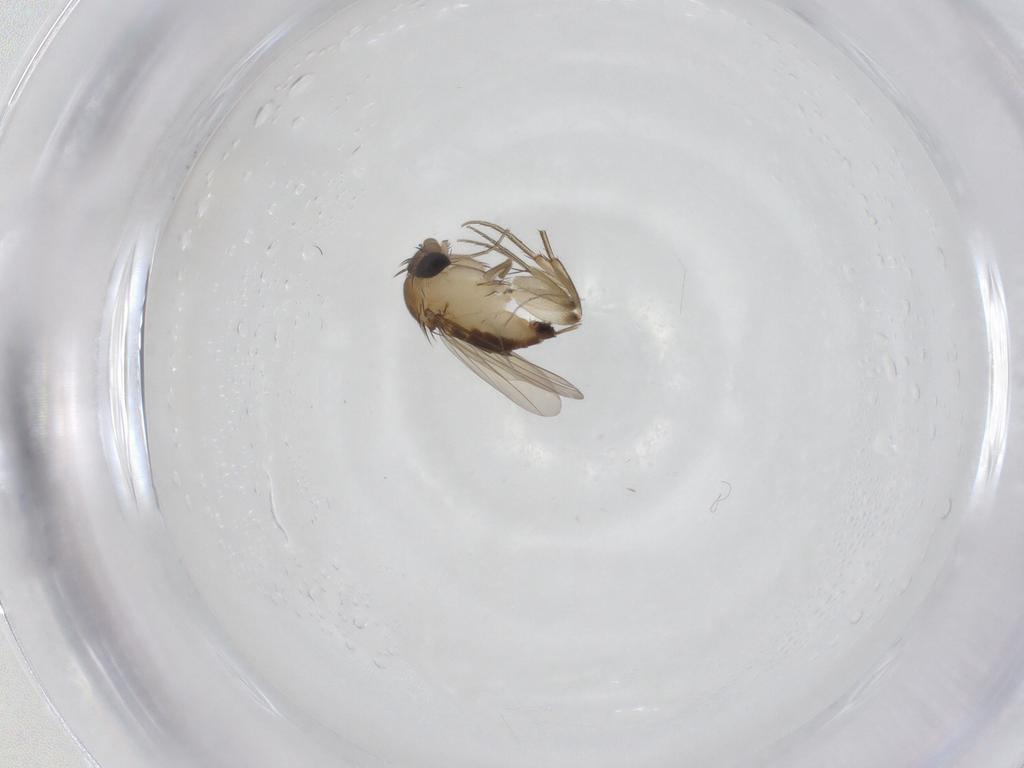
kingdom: Animalia
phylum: Arthropoda
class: Insecta
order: Diptera
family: Phoridae
